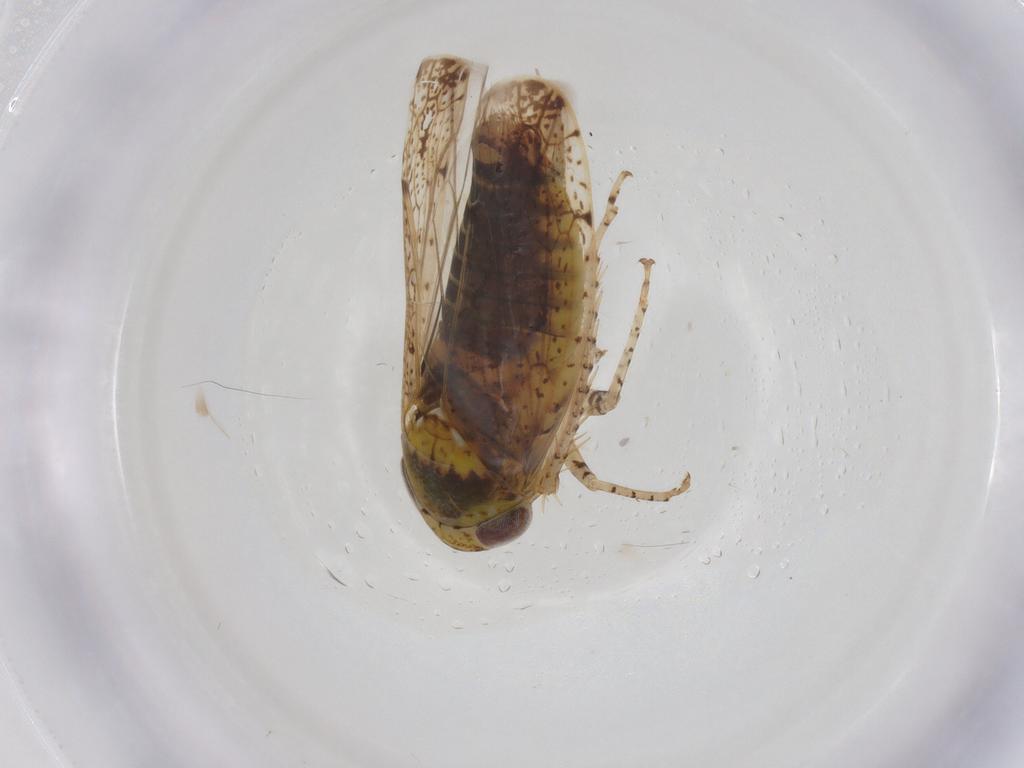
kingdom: Animalia
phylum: Arthropoda
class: Insecta
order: Hemiptera
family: Cicadellidae
